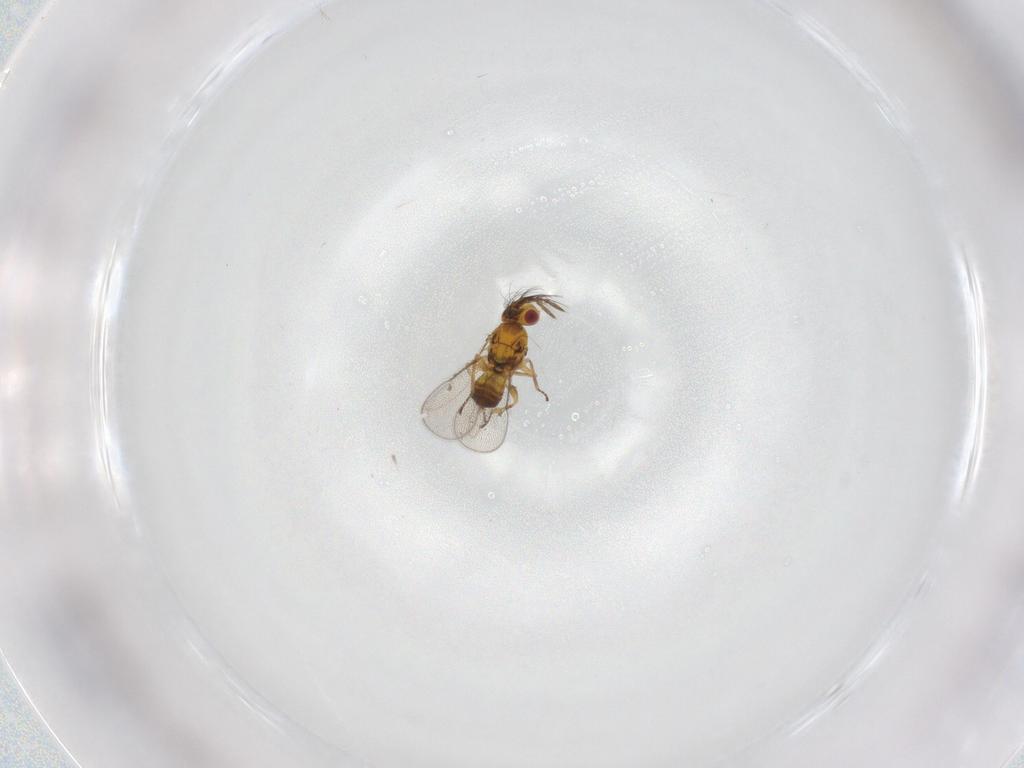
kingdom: Animalia
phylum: Arthropoda
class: Insecta
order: Hymenoptera
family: Eulophidae
